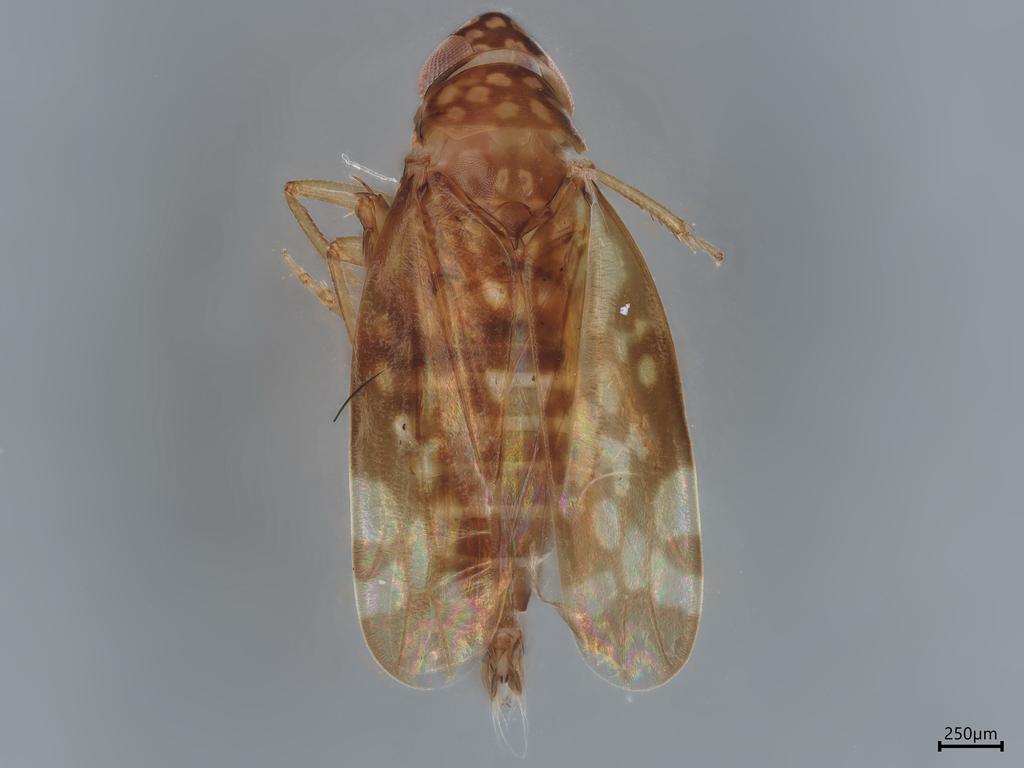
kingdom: Animalia
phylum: Arthropoda
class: Insecta
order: Hemiptera
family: Cicadellidae
